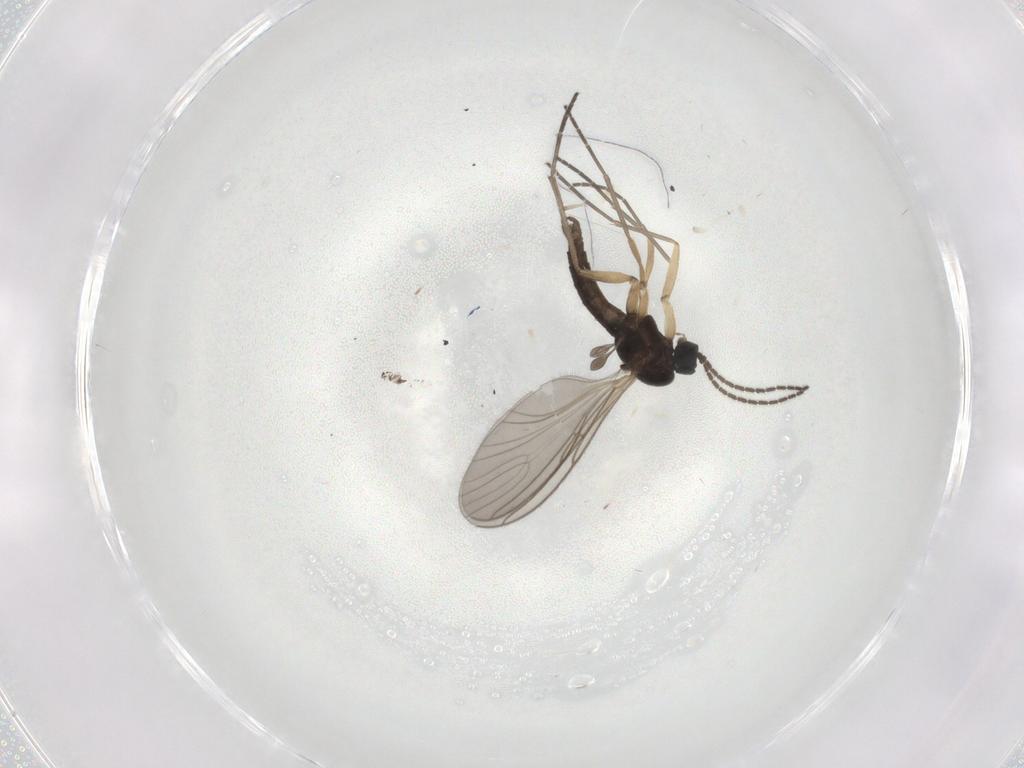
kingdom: Animalia
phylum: Arthropoda
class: Insecta
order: Diptera
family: Sciaridae
